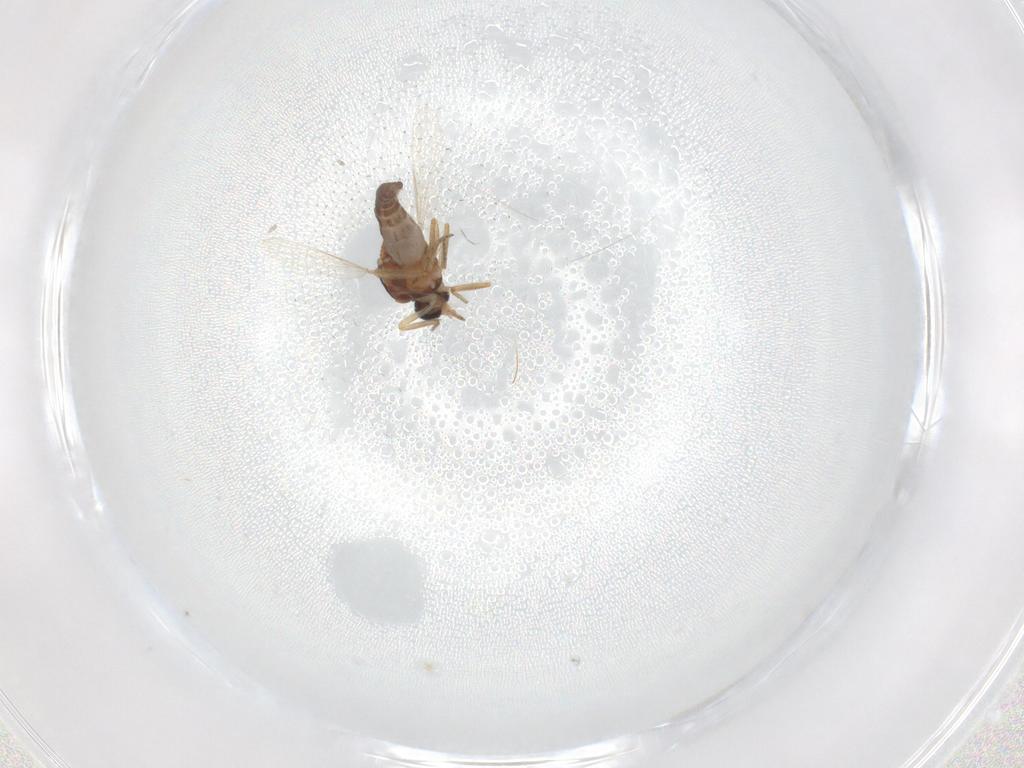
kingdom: Animalia
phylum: Arthropoda
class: Insecta
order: Diptera
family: Ceratopogonidae
